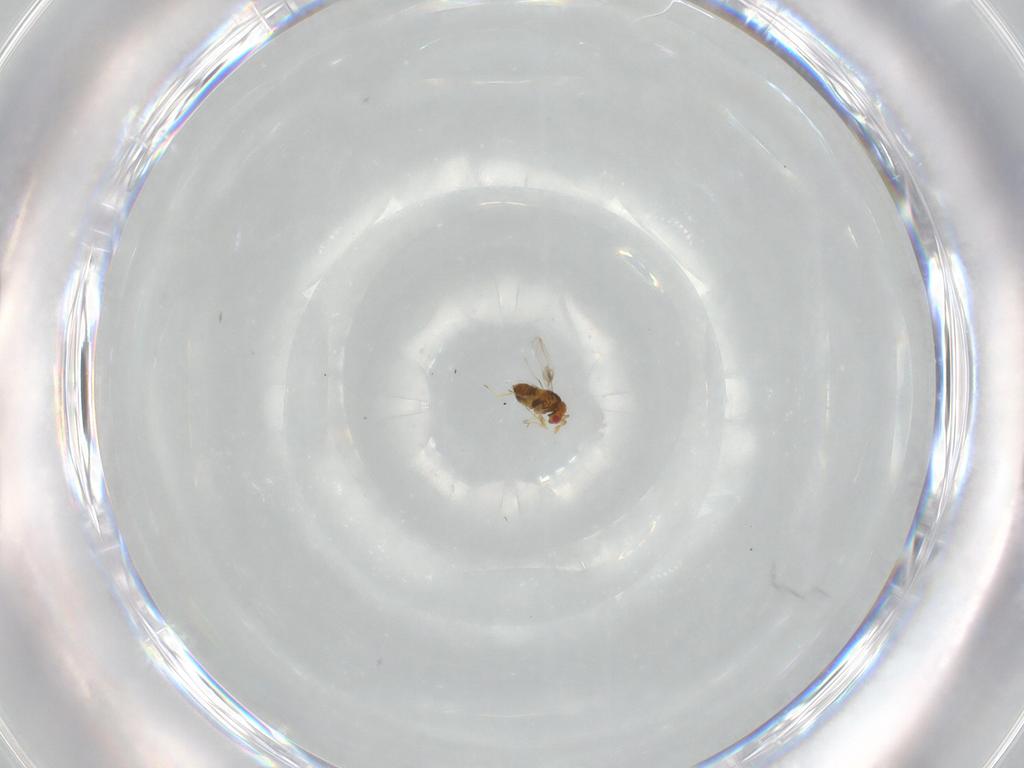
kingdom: Animalia
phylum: Arthropoda
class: Insecta
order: Hymenoptera
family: Trichogrammatidae
